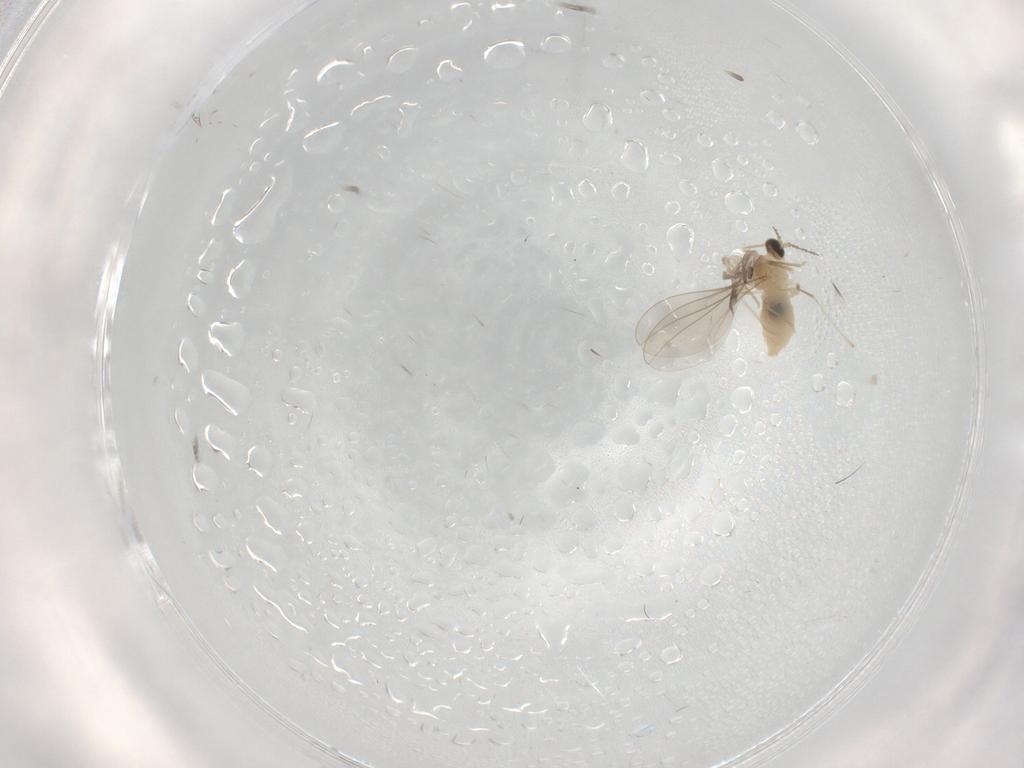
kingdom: Animalia
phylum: Arthropoda
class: Insecta
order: Diptera
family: Cecidomyiidae
